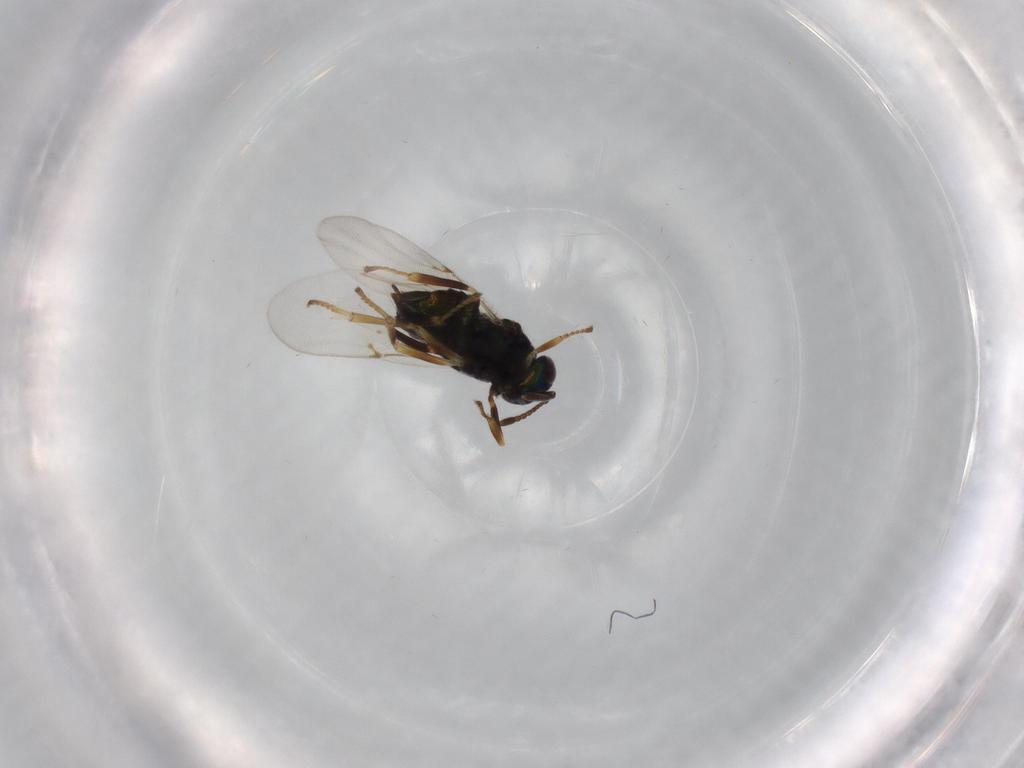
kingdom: Animalia
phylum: Arthropoda
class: Insecta
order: Hymenoptera
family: Encyrtidae
